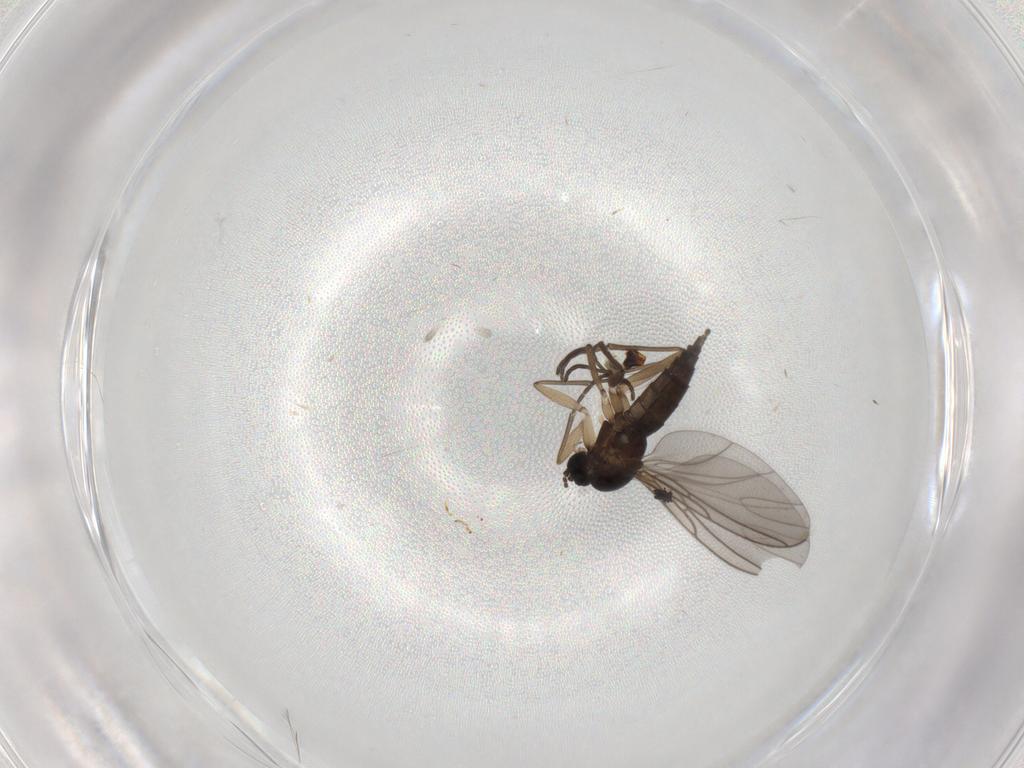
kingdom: Animalia
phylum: Arthropoda
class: Insecta
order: Diptera
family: Sciaridae
